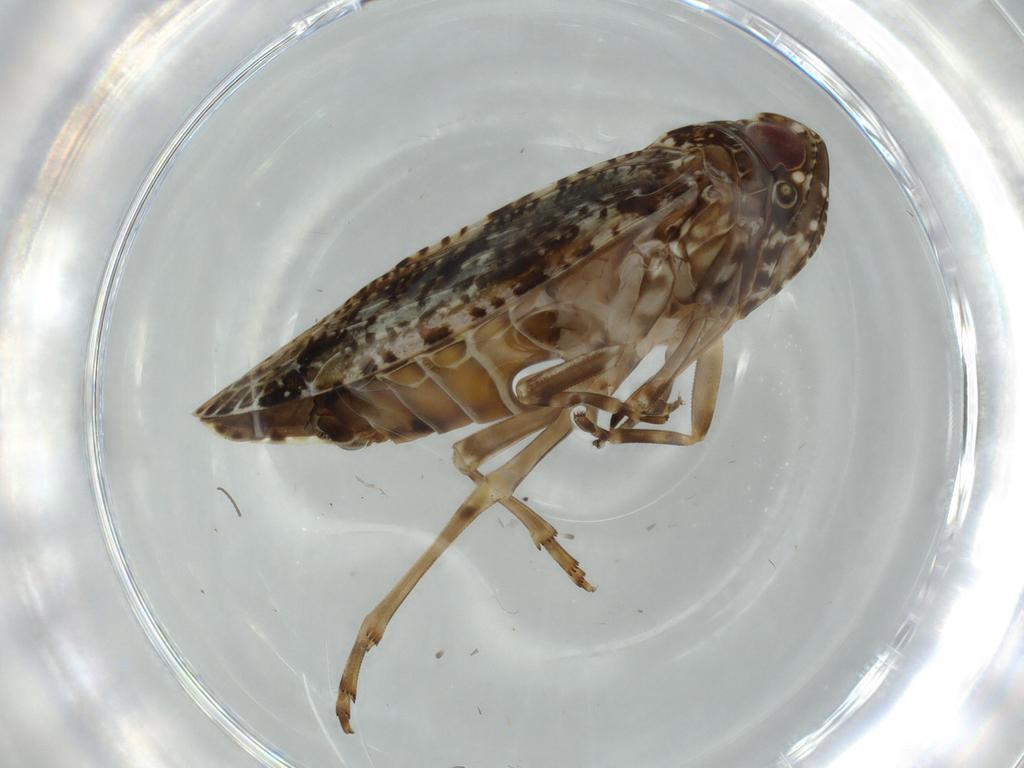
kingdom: Animalia
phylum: Arthropoda
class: Insecta
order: Hemiptera
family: Achilidae
